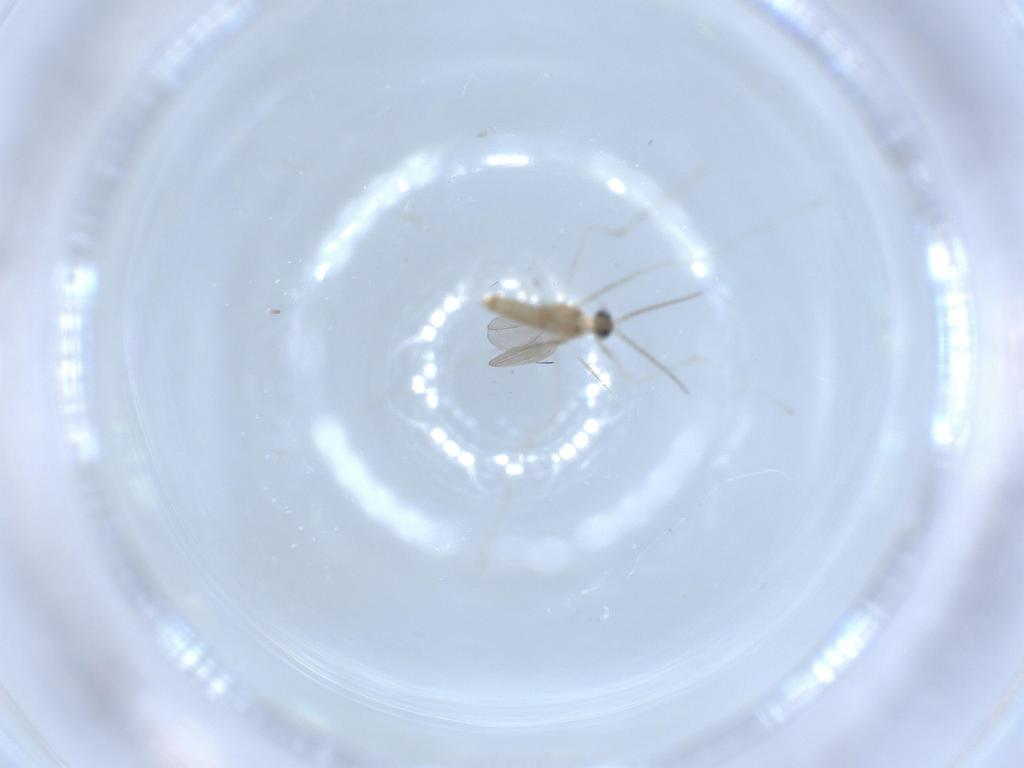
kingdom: Animalia
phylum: Arthropoda
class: Insecta
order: Diptera
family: Cecidomyiidae
